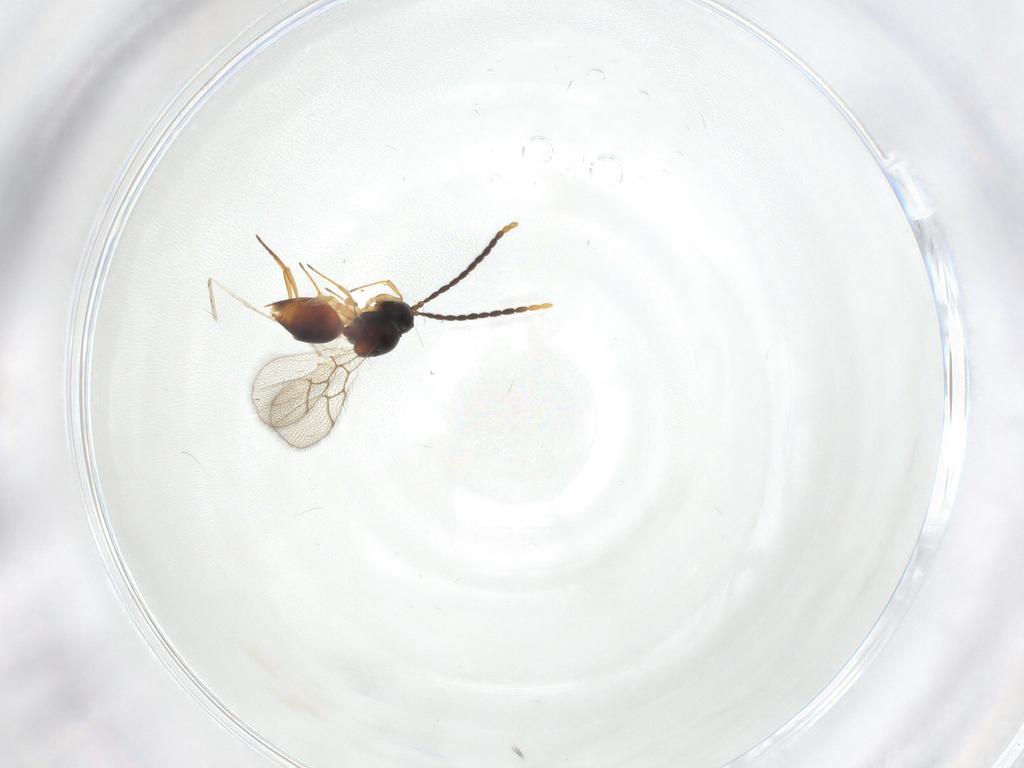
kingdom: Animalia
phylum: Arthropoda
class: Insecta
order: Hymenoptera
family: Figitidae
